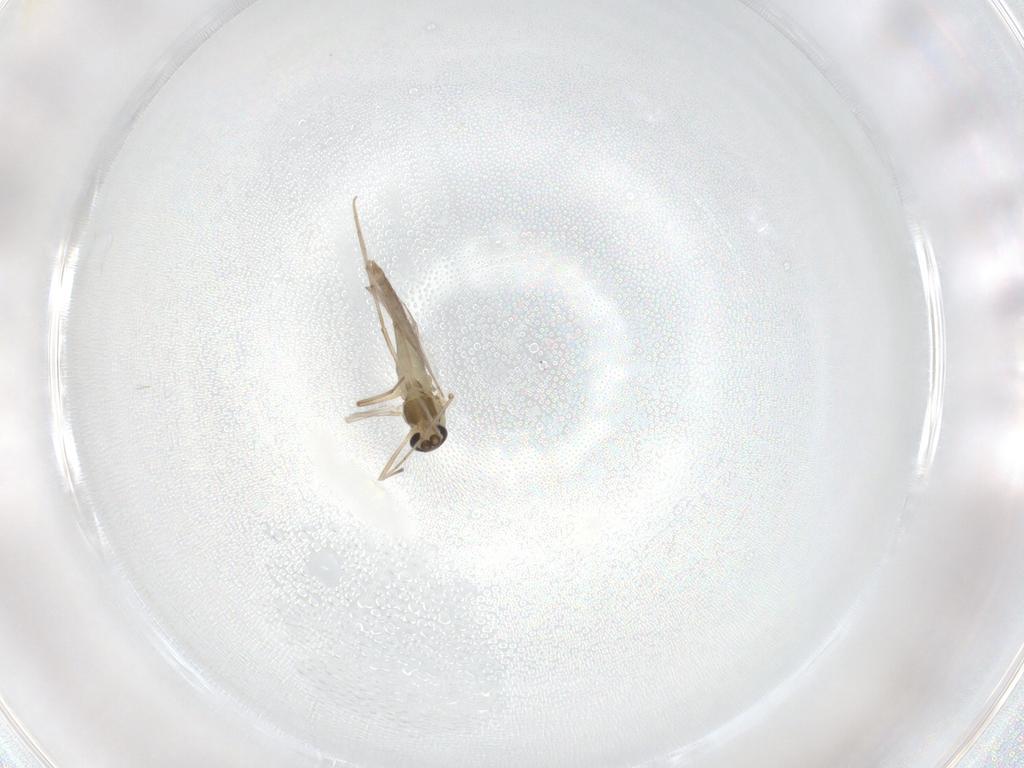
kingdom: Animalia
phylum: Arthropoda
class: Insecta
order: Diptera
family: Chironomidae
